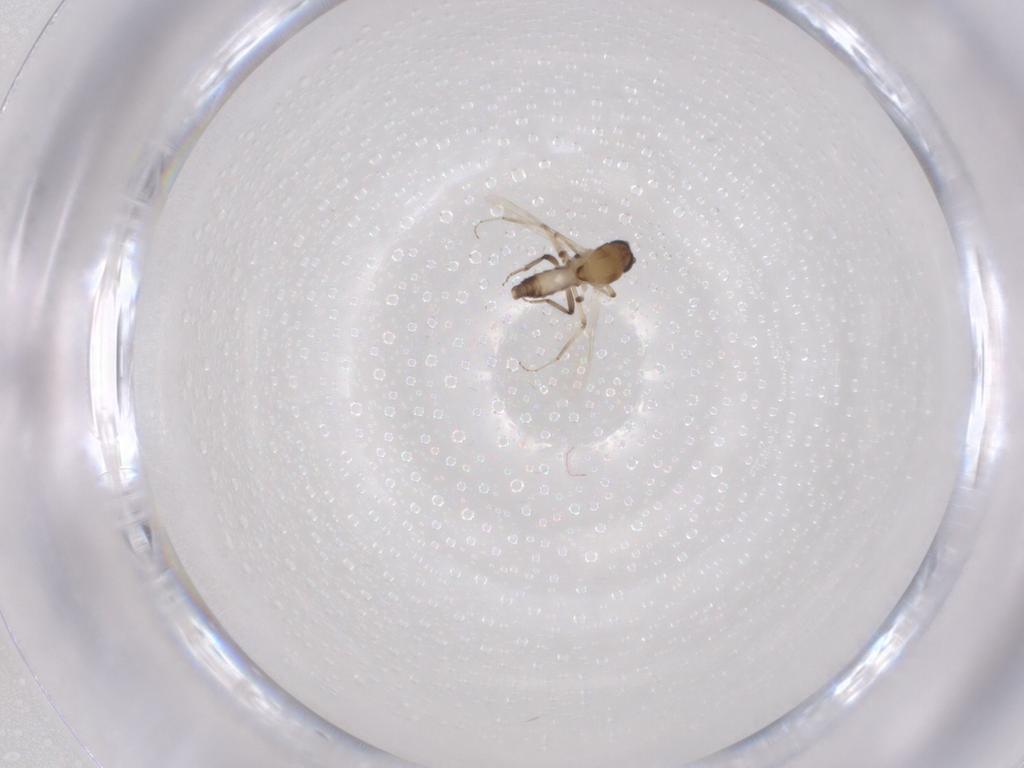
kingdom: Animalia
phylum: Arthropoda
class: Insecta
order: Diptera
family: Ceratopogonidae
